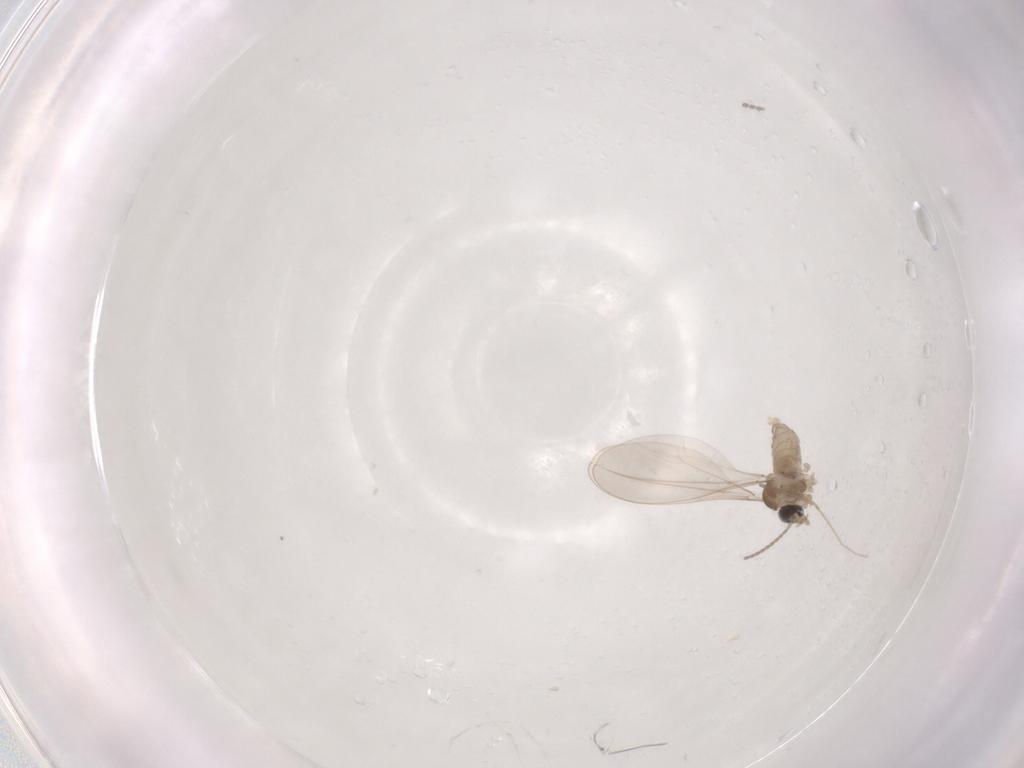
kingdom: Animalia
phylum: Arthropoda
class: Insecta
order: Diptera
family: Cecidomyiidae
